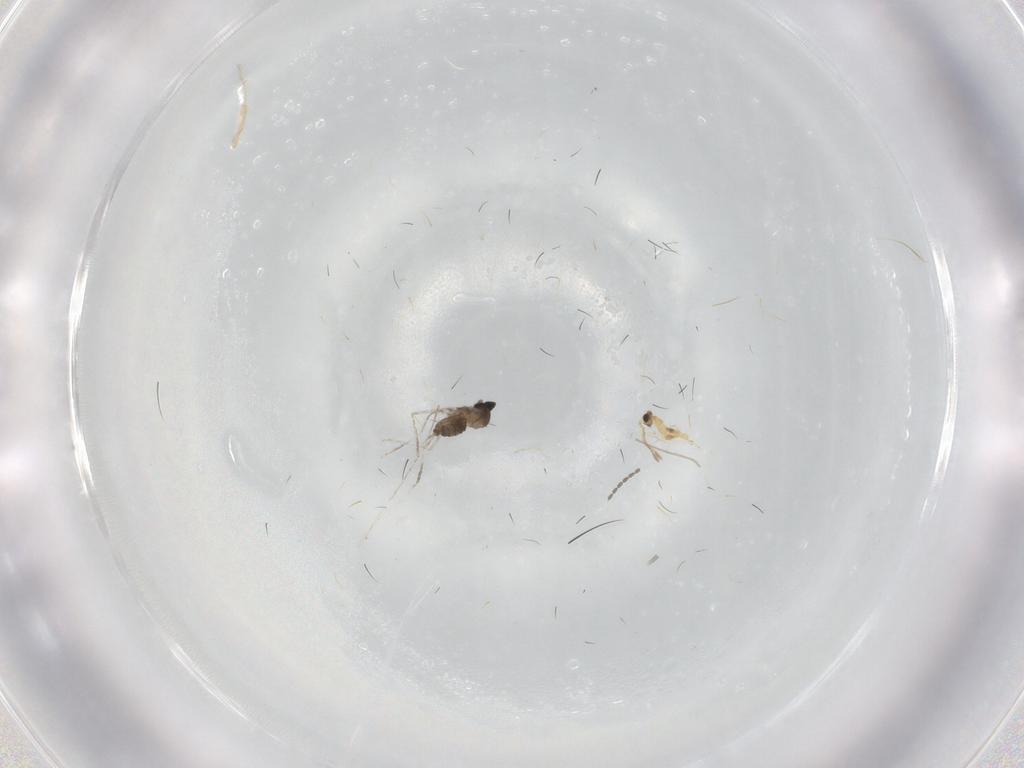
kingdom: Animalia
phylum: Arthropoda
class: Insecta
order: Diptera
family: Cecidomyiidae
